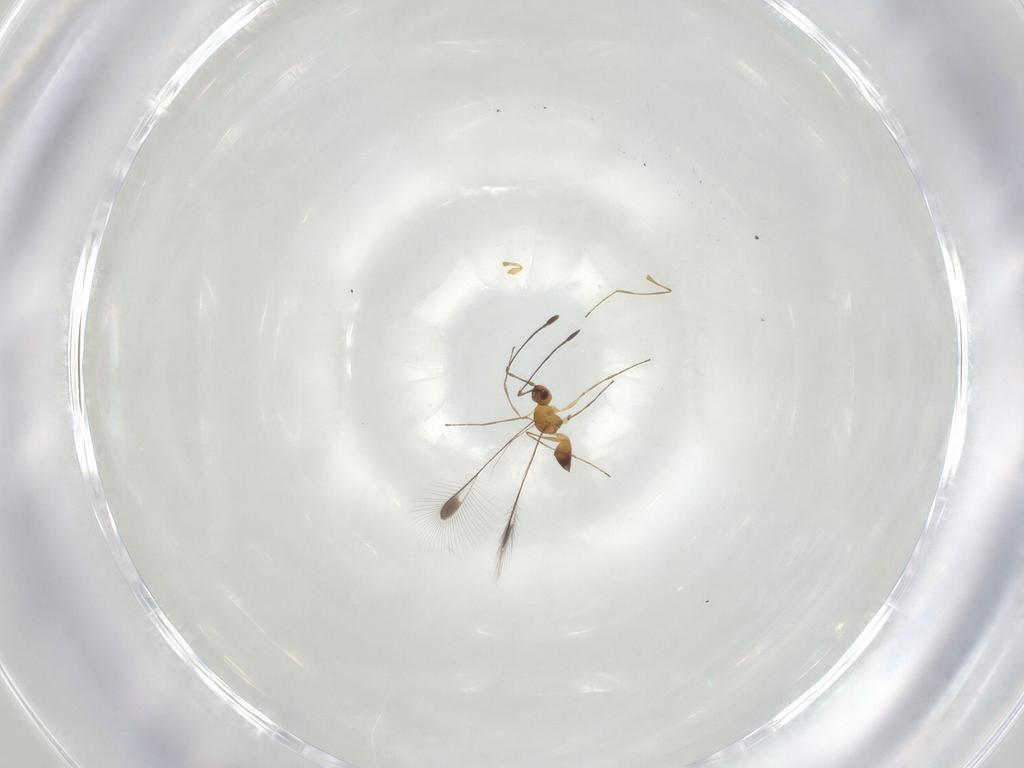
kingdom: Animalia
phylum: Arthropoda
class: Insecta
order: Hymenoptera
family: Mymaridae
